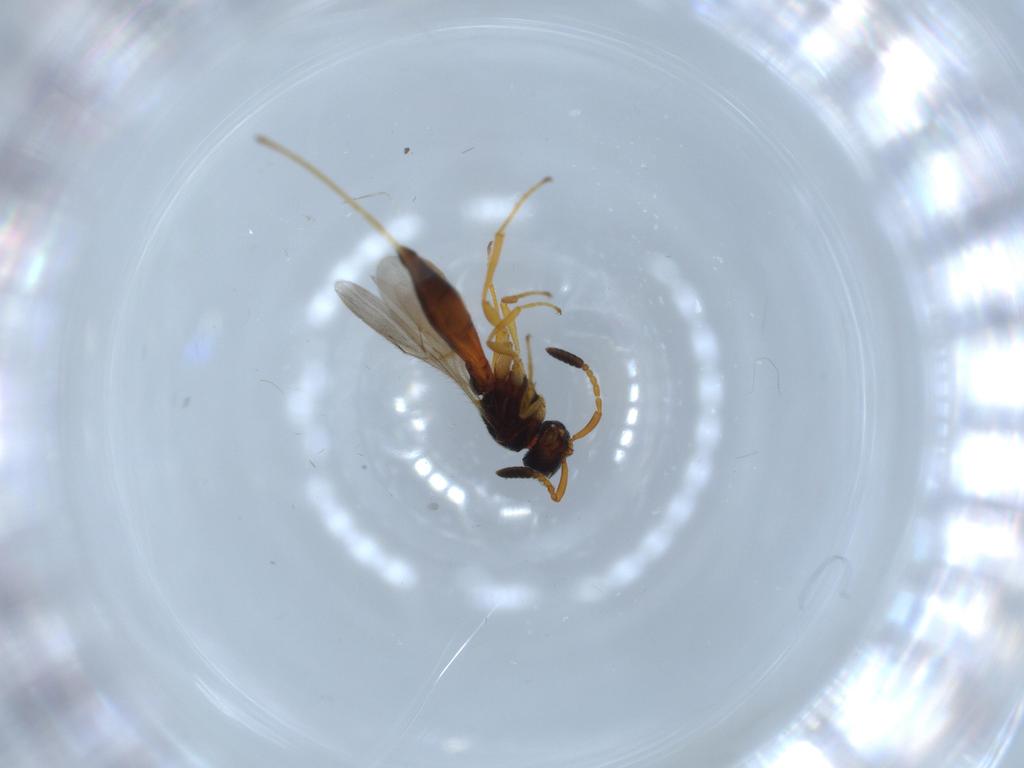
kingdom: Animalia
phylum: Arthropoda
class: Insecta
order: Hymenoptera
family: Scelionidae
